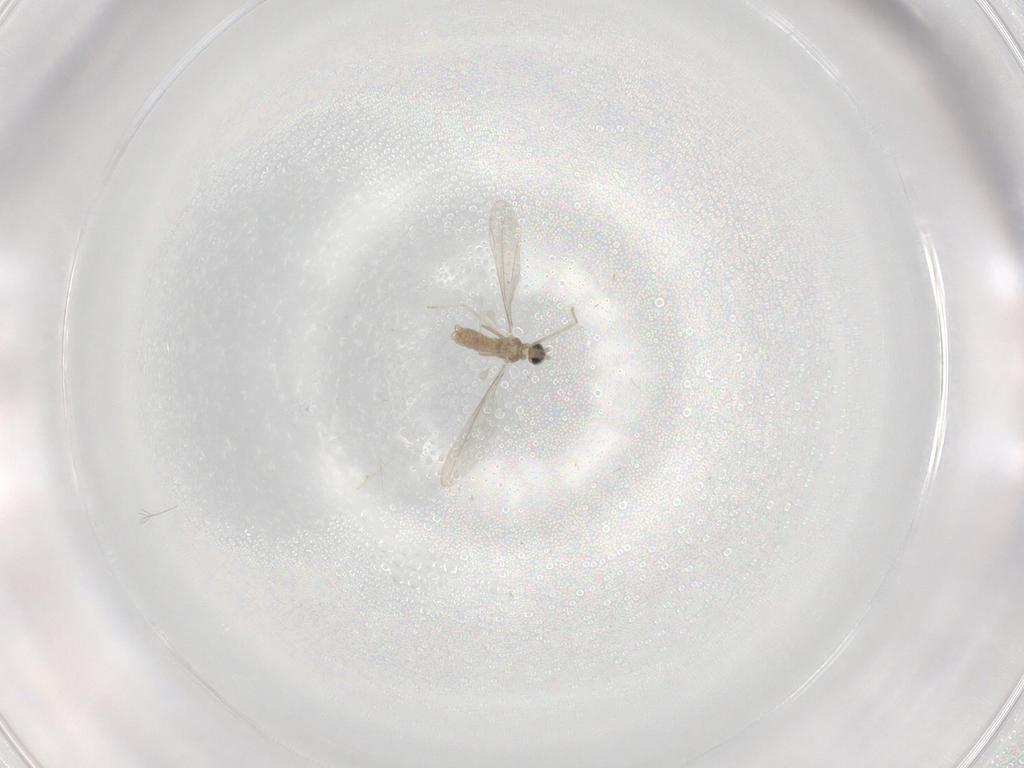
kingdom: Animalia
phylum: Arthropoda
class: Insecta
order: Diptera
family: Cecidomyiidae
